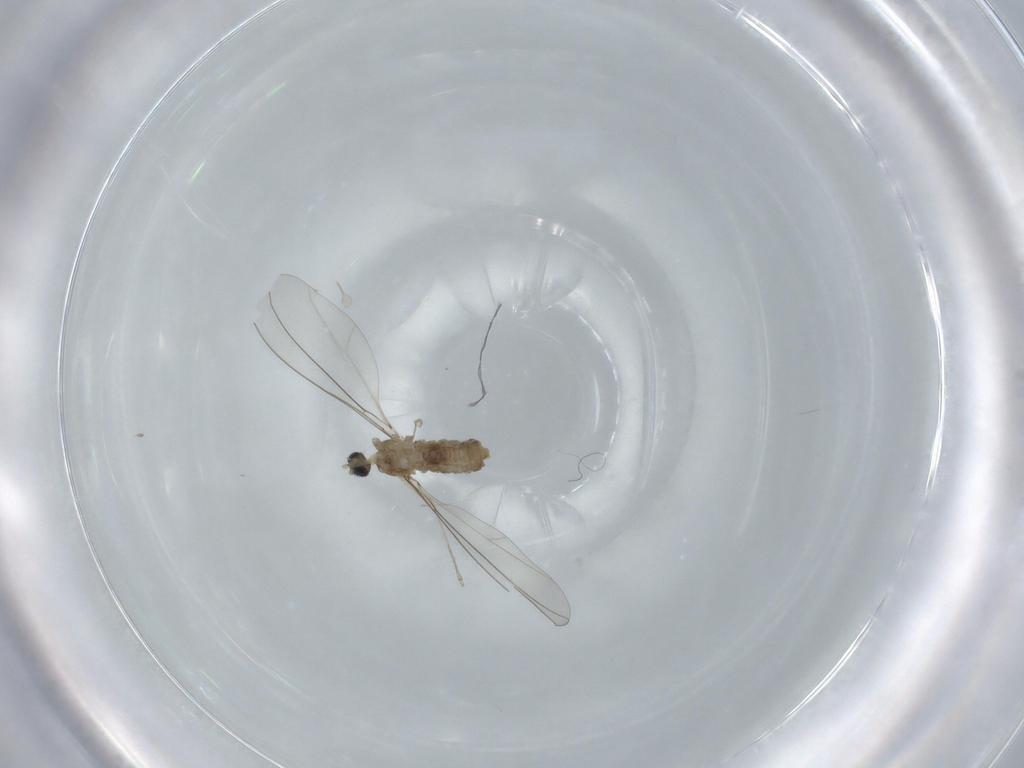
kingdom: Animalia
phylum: Arthropoda
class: Insecta
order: Diptera
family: Cecidomyiidae
